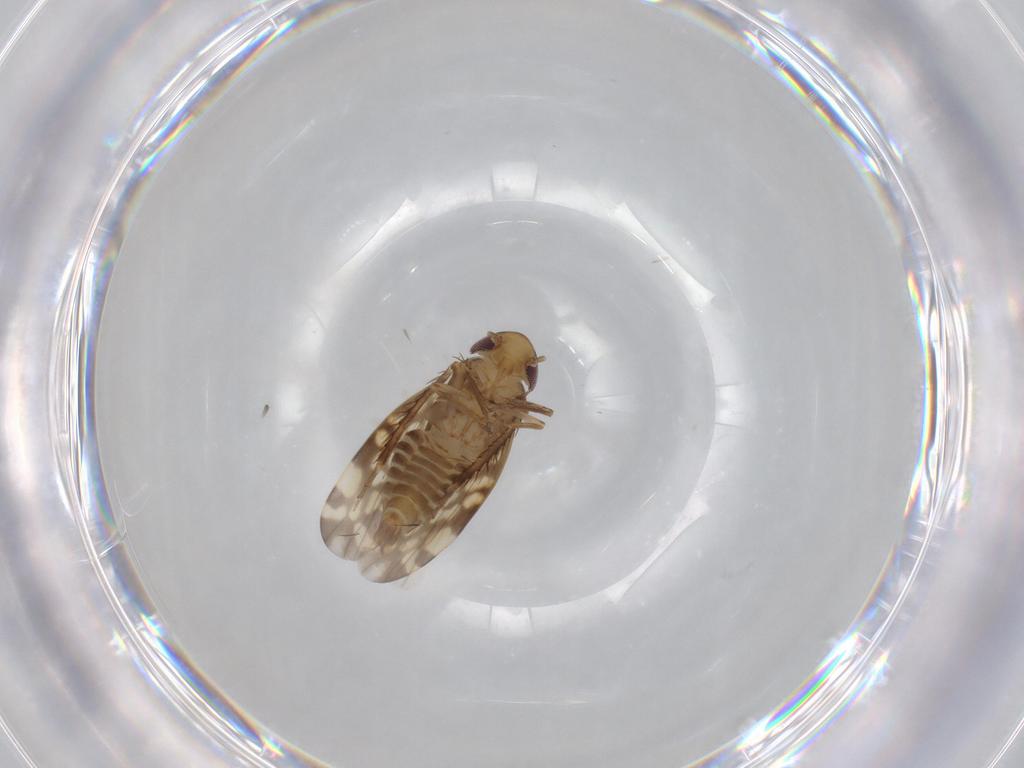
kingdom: Animalia
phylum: Arthropoda
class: Insecta
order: Hemiptera
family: Cicadellidae
